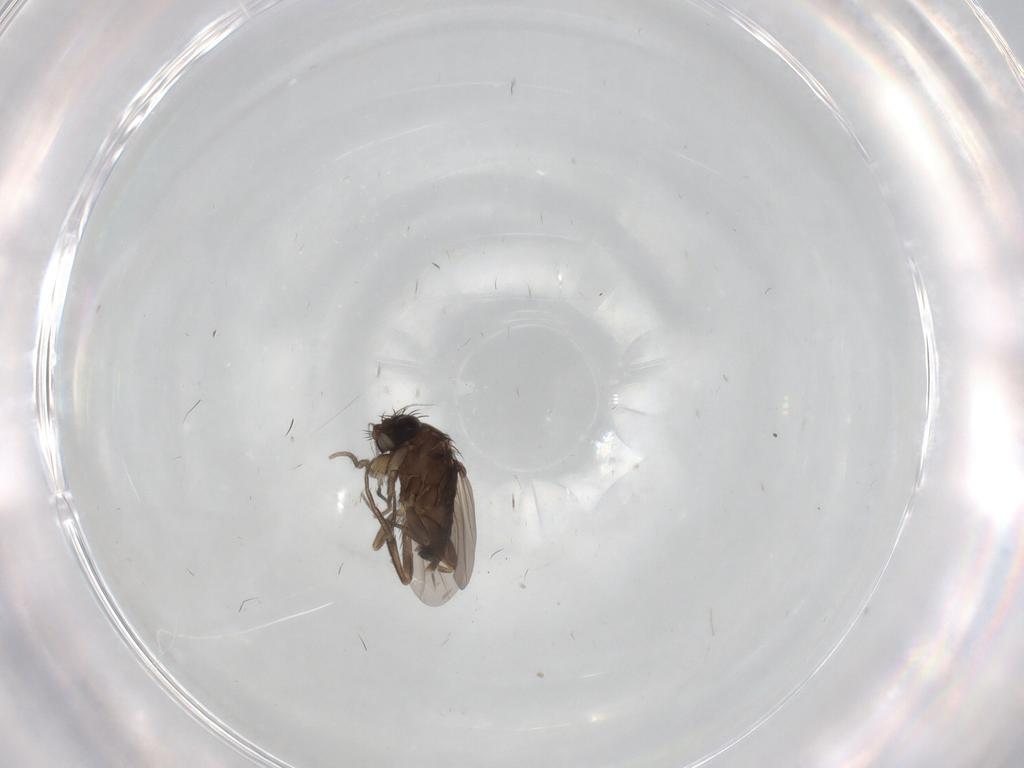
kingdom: Animalia
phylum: Arthropoda
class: Insecta
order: Diptera
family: Phoridae
